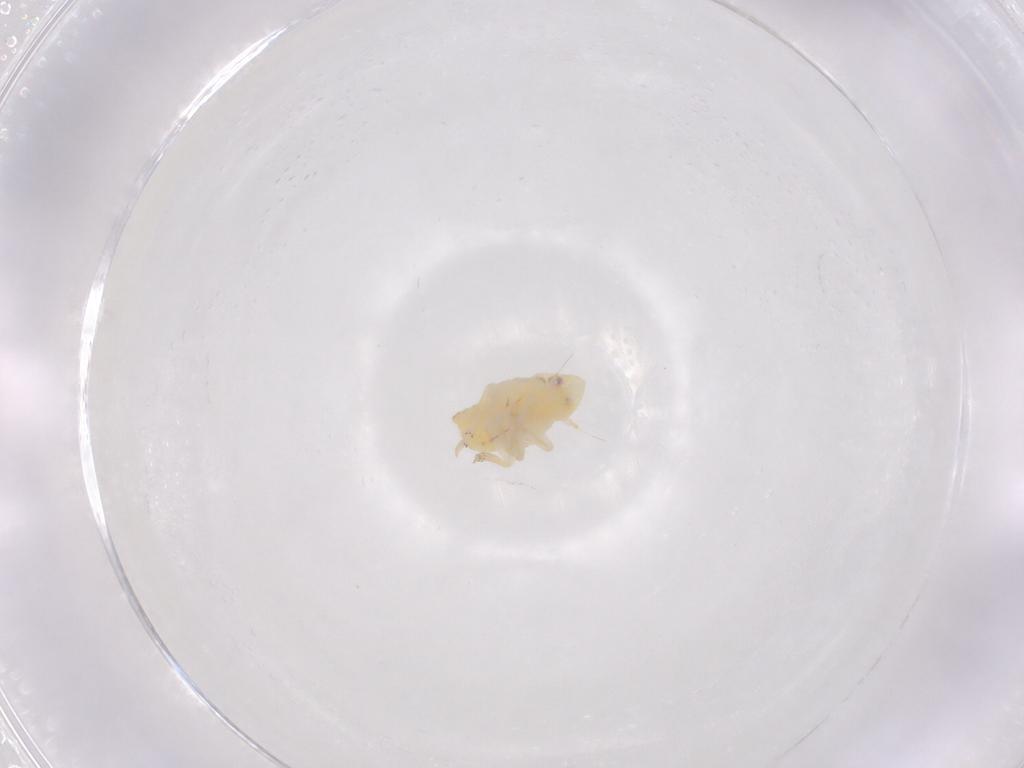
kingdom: Animalia
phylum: Arthropoda
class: Insecta
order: Hemiptera
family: Flatidae
